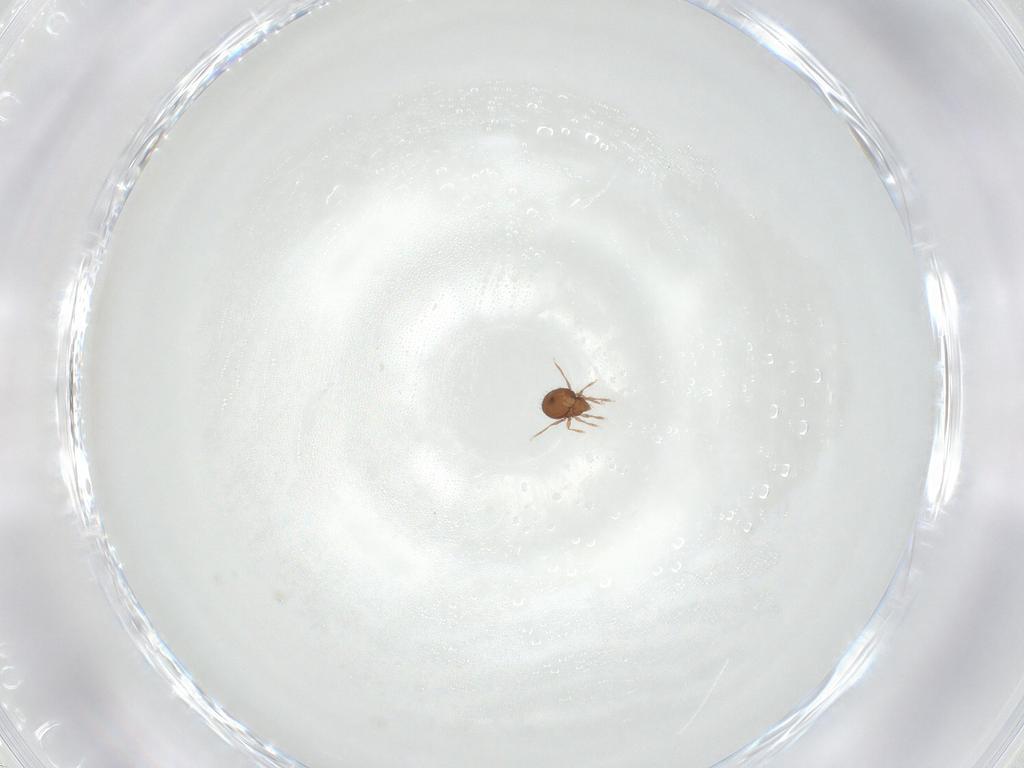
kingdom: Animalia
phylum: Arthropoda
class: Arachnida
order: Sarcoptiformes
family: Oribatulidae
